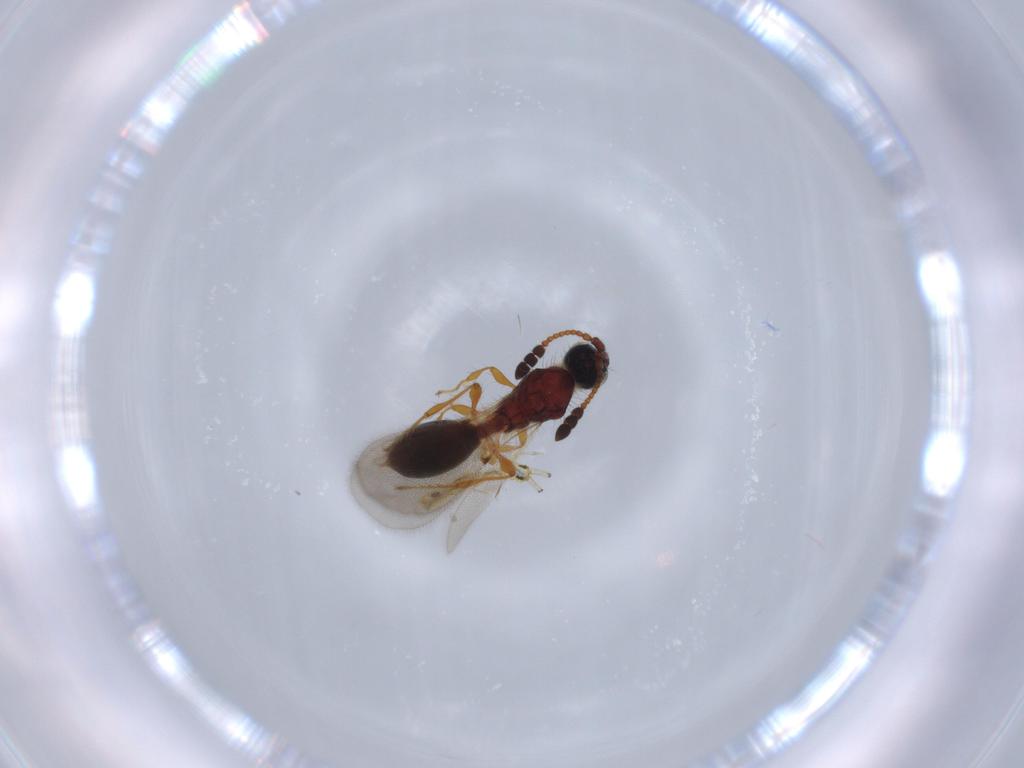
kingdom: Animalia
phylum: Arthropoda
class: Insecta
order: Hymenoptera
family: Diapriidae
